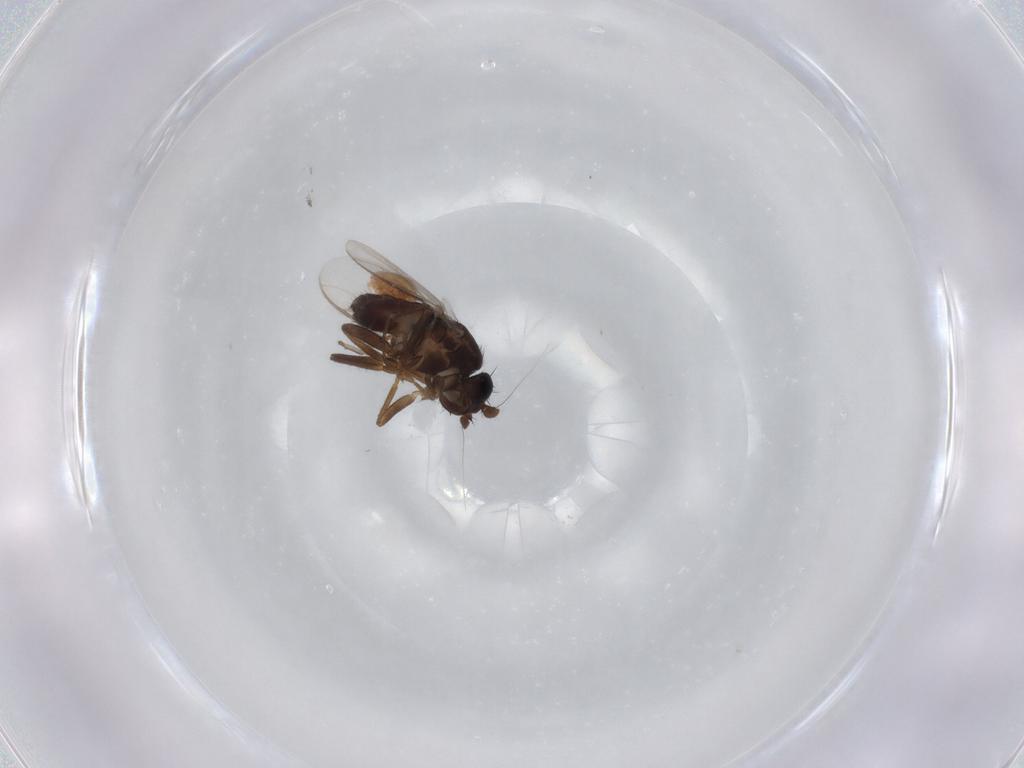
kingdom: Animalia
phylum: Arthropoda
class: Insecta
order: Diptera
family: Sphaeroceridae
